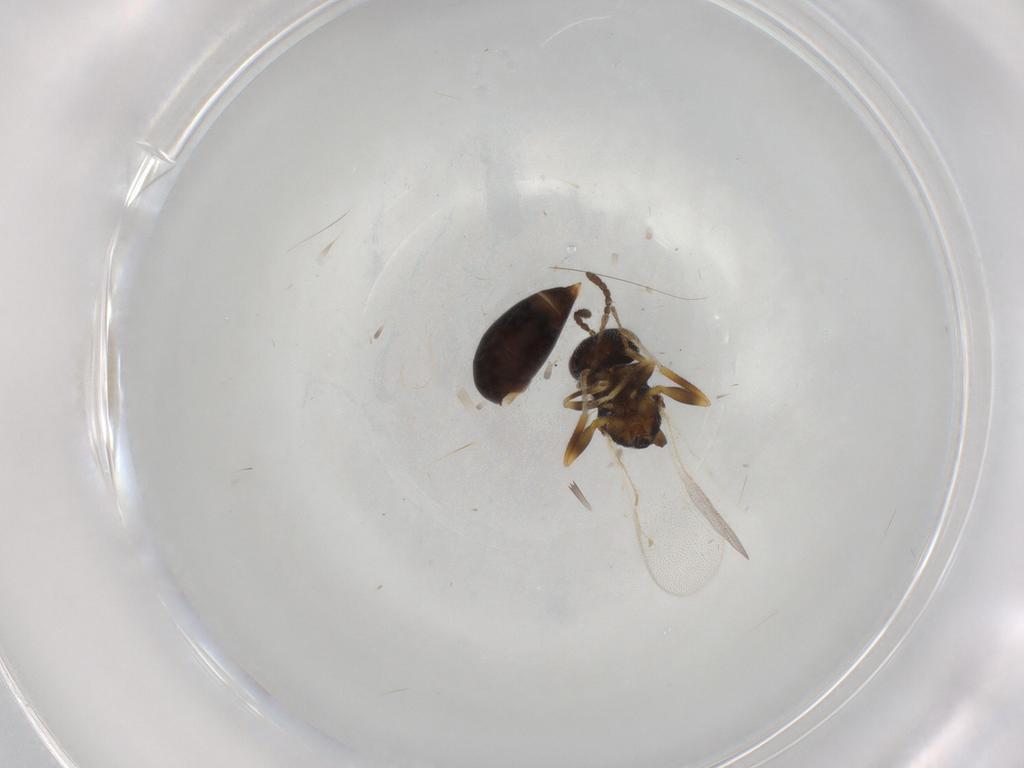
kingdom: Animalia
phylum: Arthropoda
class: Insecta
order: Hymenoptera
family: Eurytomidae
